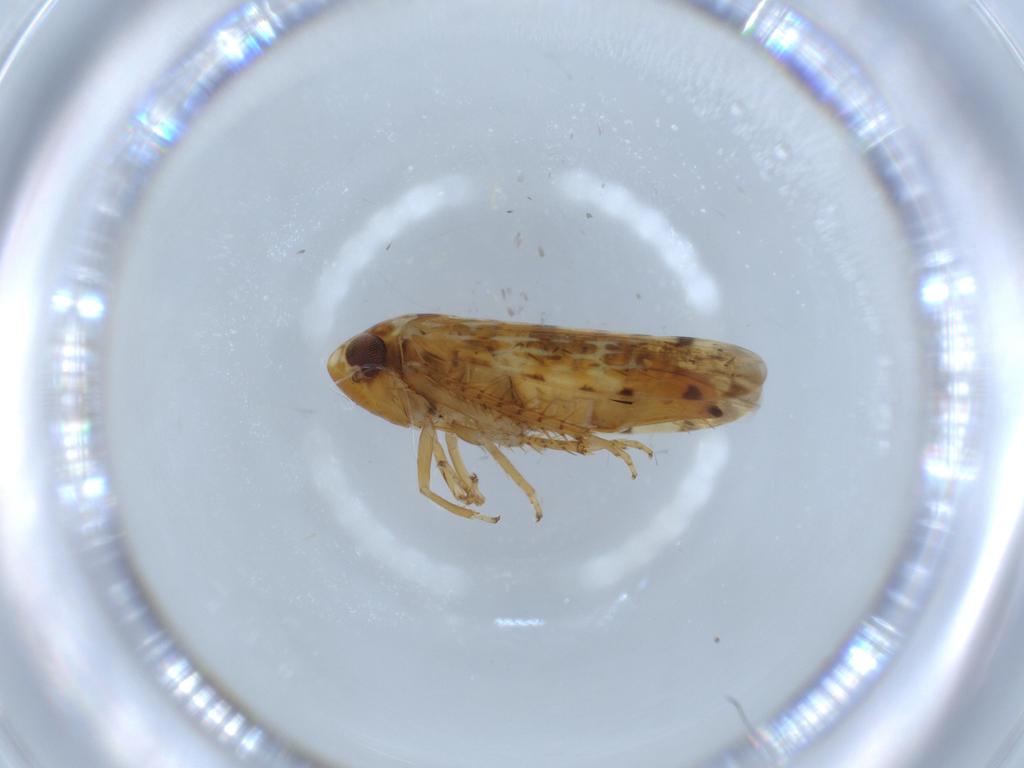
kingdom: Animalia
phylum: Arthropoda
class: Insecta
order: Hemiptera
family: Cicadellidae
